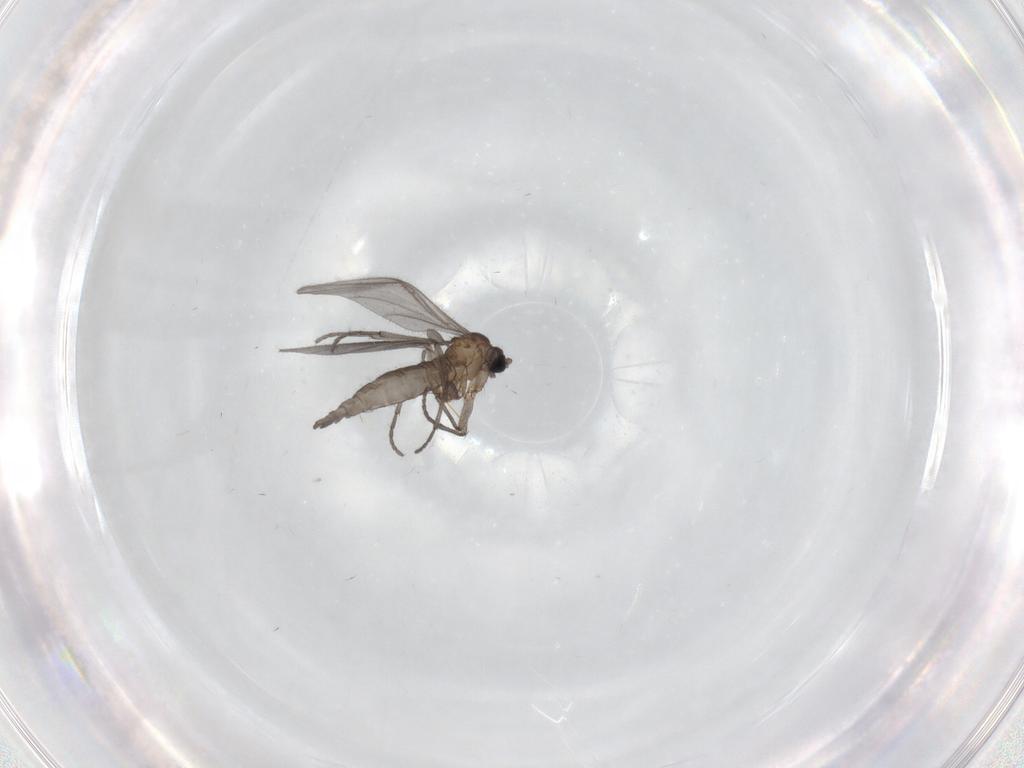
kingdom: Animalia
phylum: Arthropoda
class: Insecta
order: Diptera
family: Sciaridae
